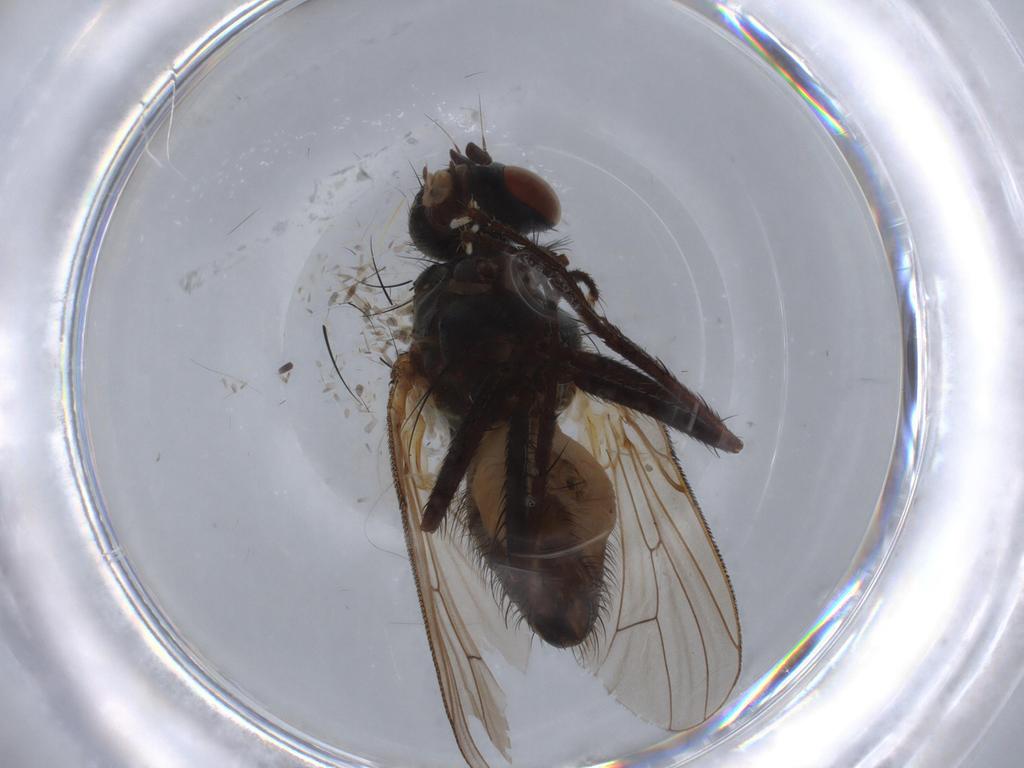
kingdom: Animalia
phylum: Arthropoda
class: Insecta
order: Diptera
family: Anthomyiidae
